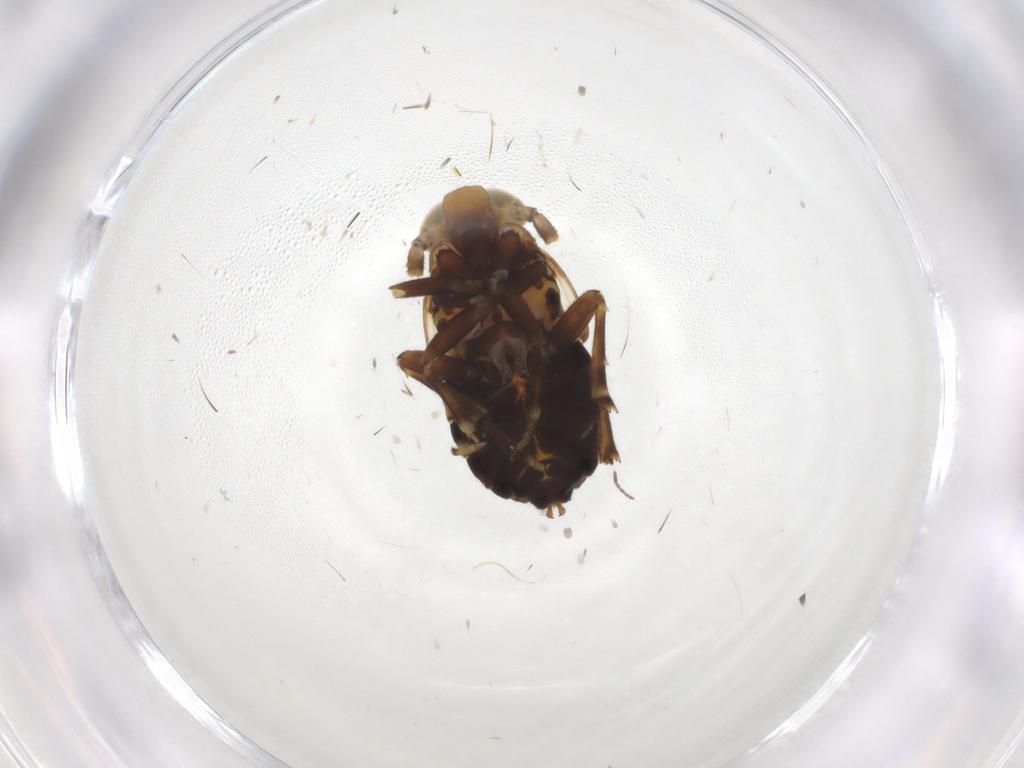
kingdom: Animalia
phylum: Arthropoda
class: Insecta
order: Hemiptera
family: Delphacidae
